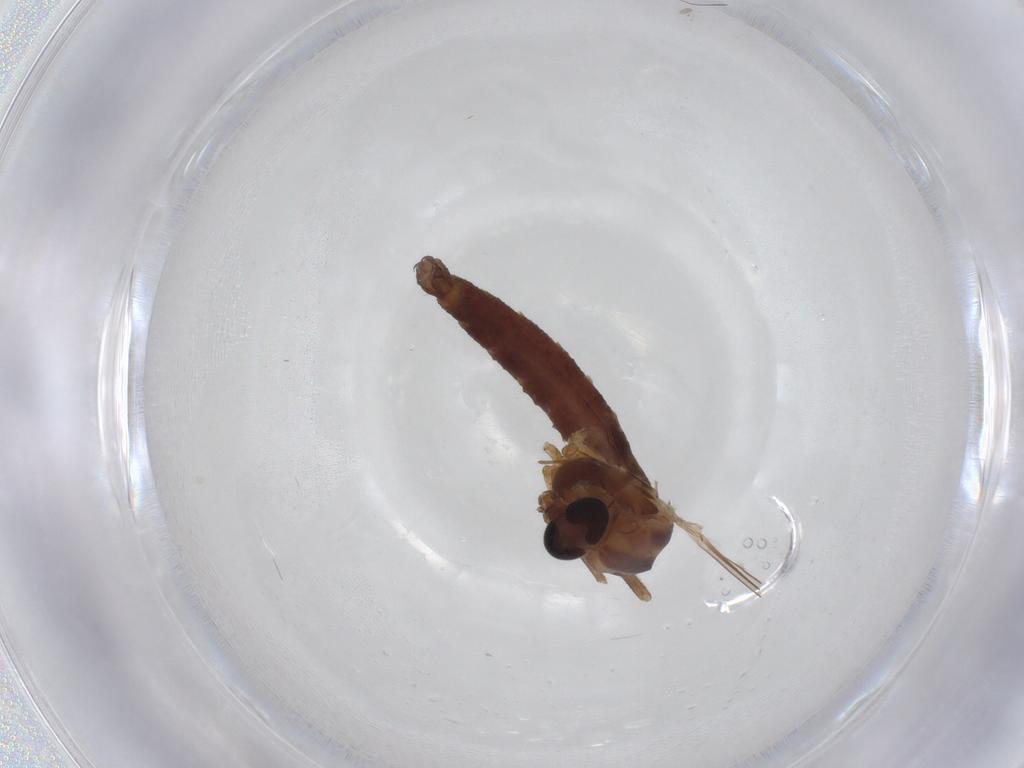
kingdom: Animalia
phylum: Arthropoda
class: Insecta
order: Diptera
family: Chironomidae
